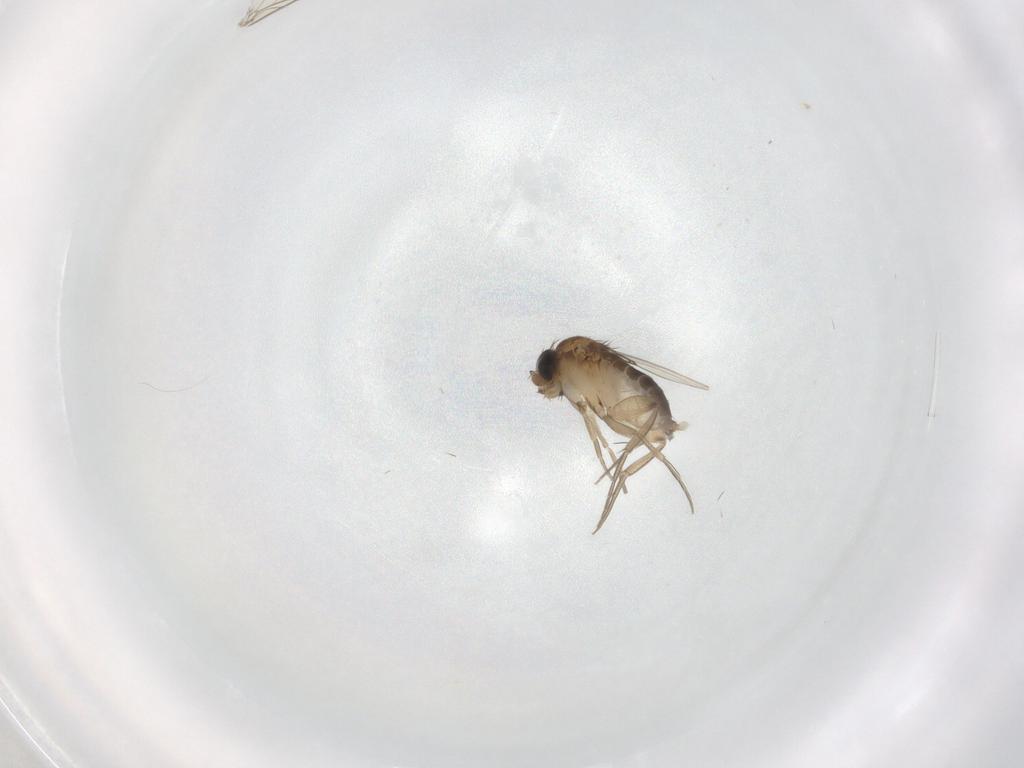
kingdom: Animalia
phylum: Arthropoda
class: Insecta
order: Diptera
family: Phoridae
